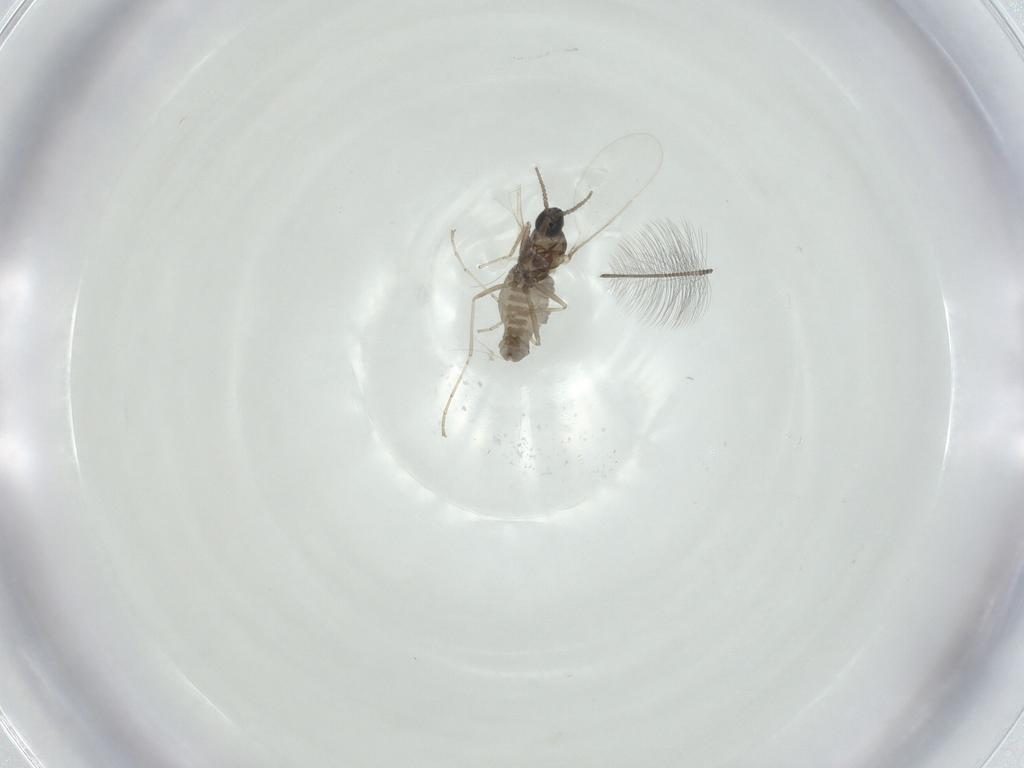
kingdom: Animalia
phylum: Arthropoda
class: Insecta
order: Diptera
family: Cecidomyiidae
